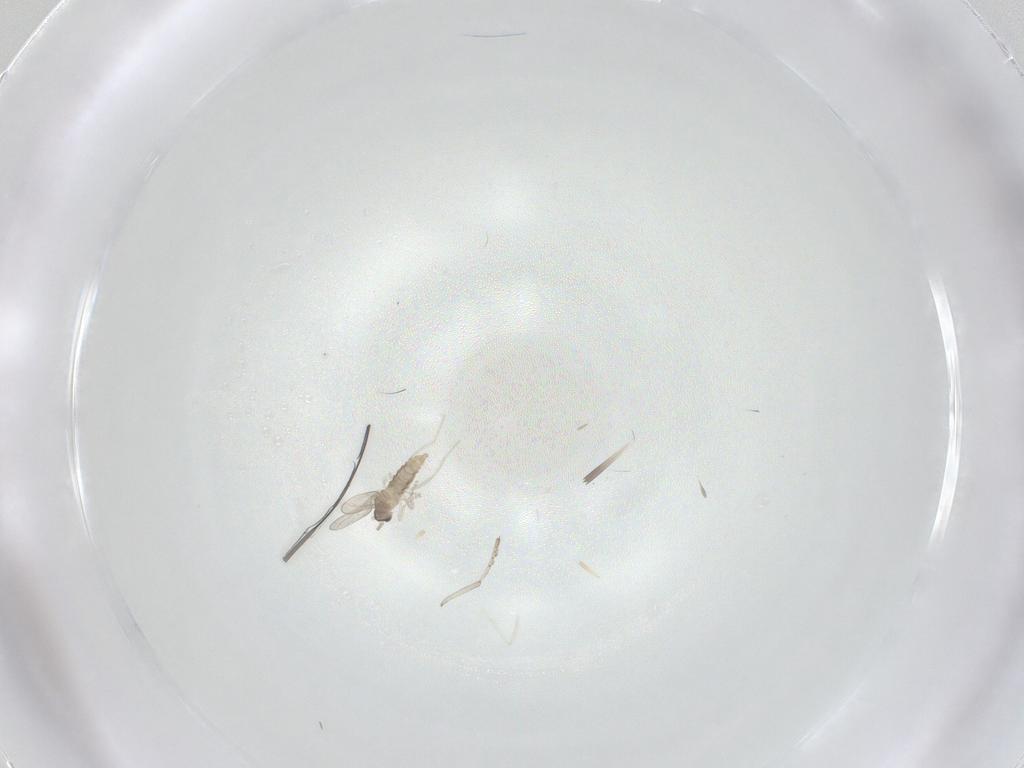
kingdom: Animalia
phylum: Arthropoda
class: Insecta
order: Diptera
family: Cecidomyiidae
